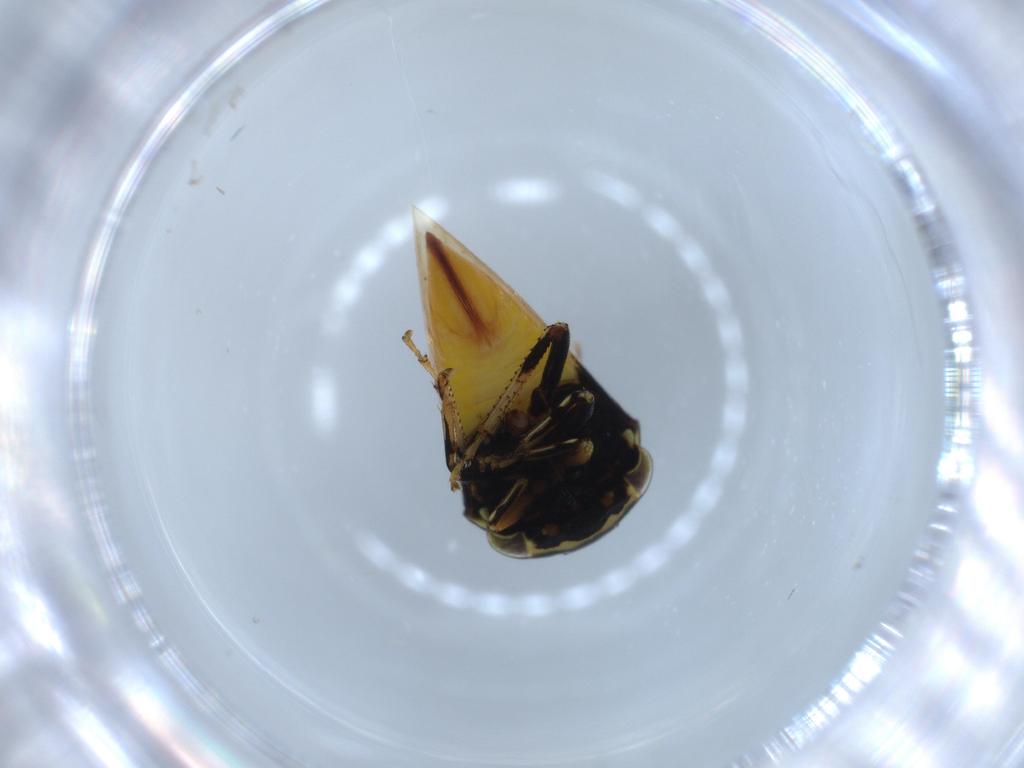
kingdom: Animalia
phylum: Arthropoda
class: Insecta
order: Hemiptera
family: Membracidae
